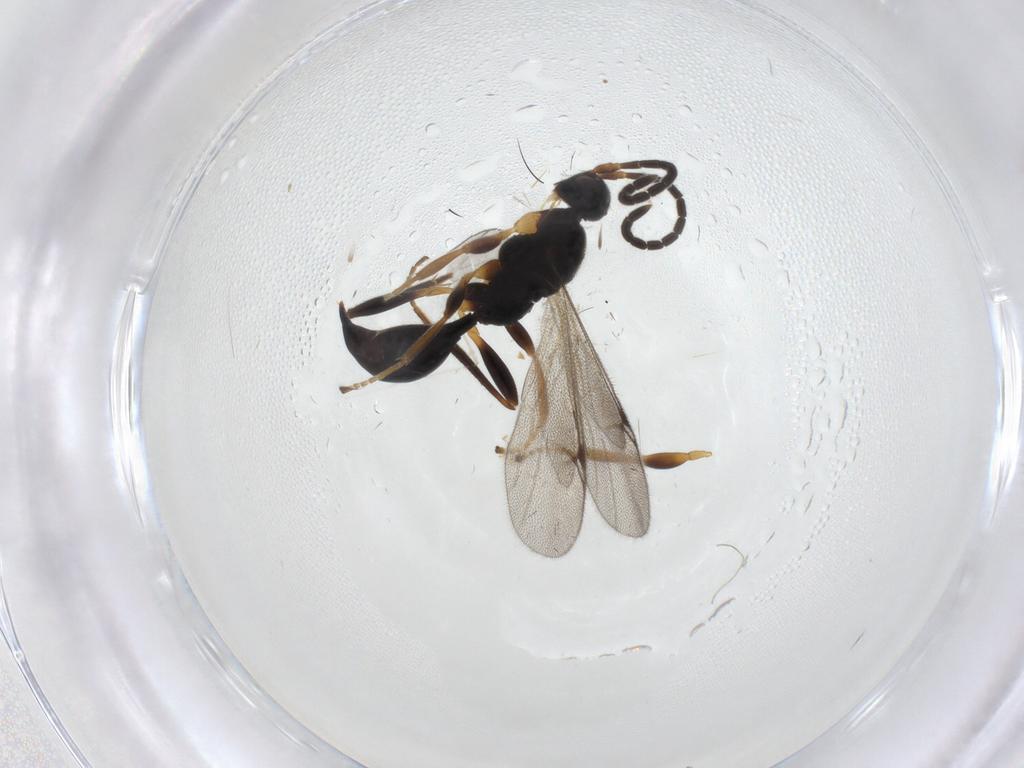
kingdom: Animalia
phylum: Arthropoda
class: Insecta
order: Hymenoptera
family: Proctotrupidae
